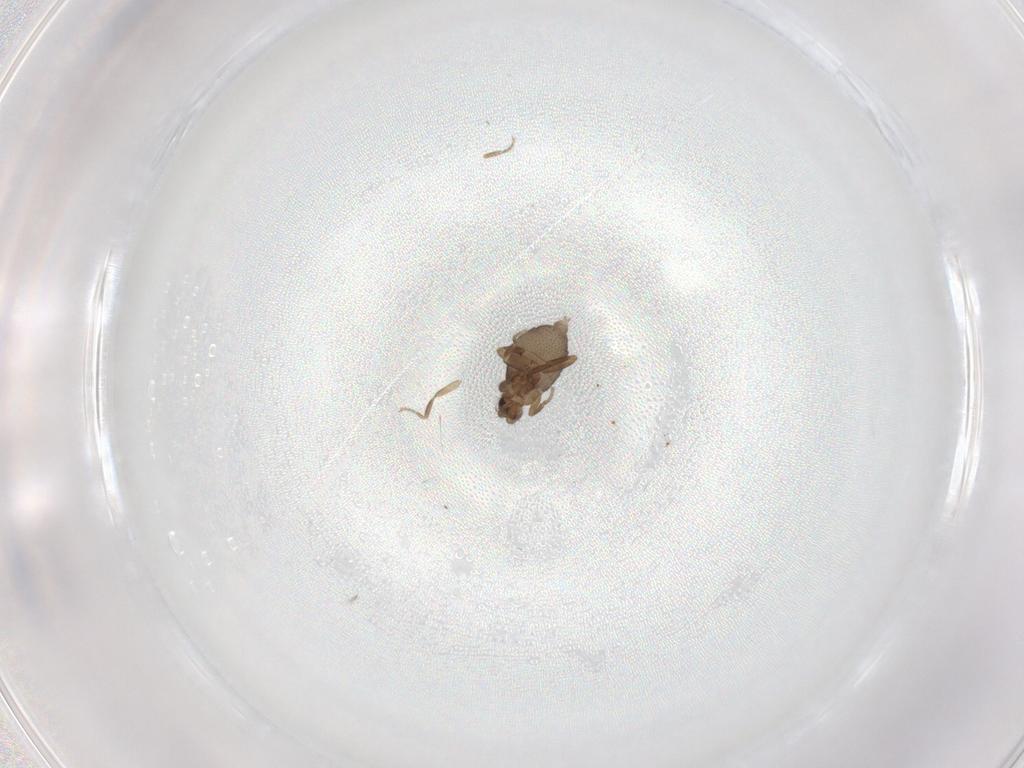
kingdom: Animalia
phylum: Arthropoda
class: Insecta
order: Diptera
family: Phoridae
